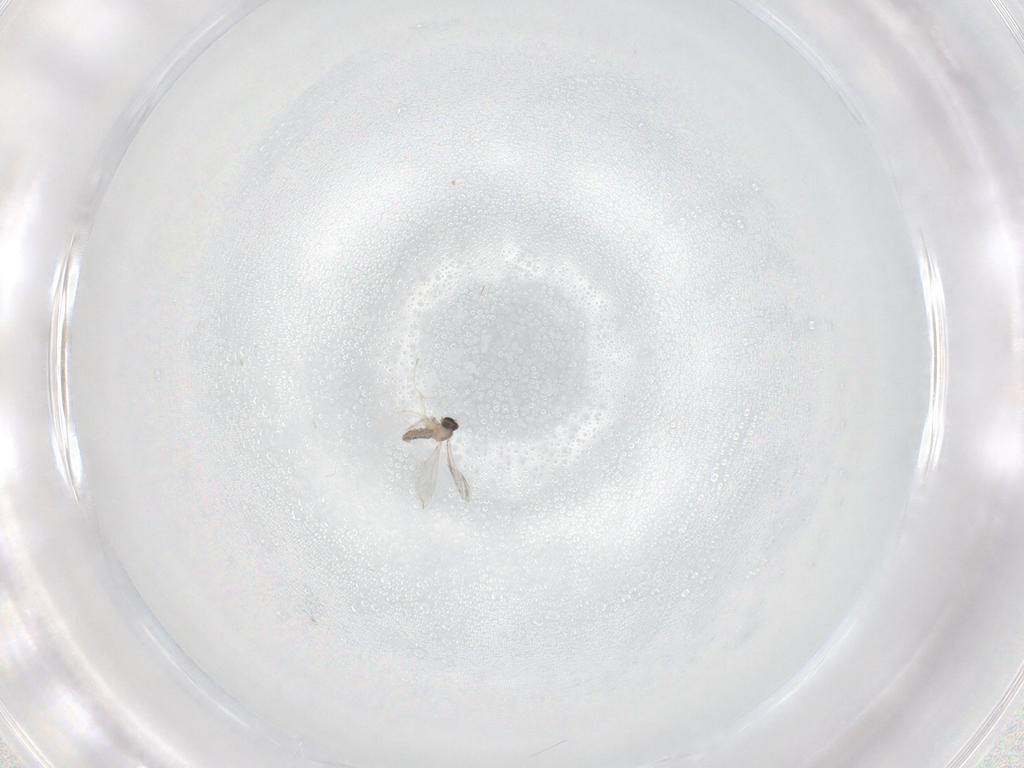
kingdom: Animalia
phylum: Arthropoda
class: Insecta
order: Diptera
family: Cecidomyiidae
